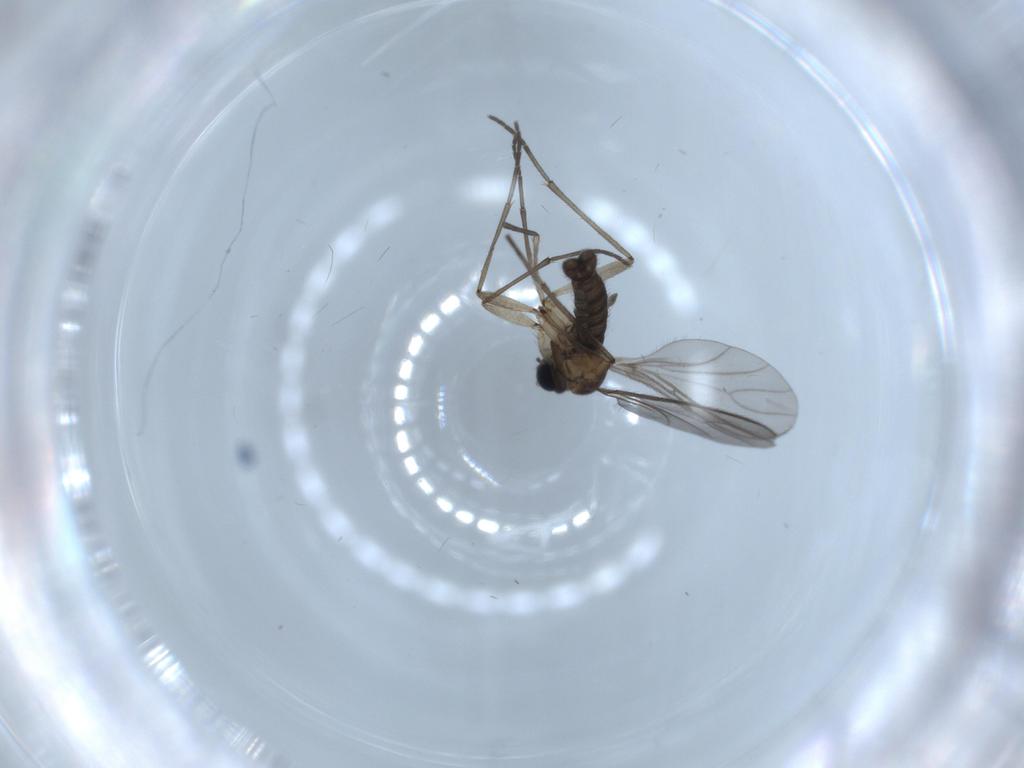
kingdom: Animalia
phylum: Arthropoda
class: Insecta
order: Diptera
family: Sciaridae
